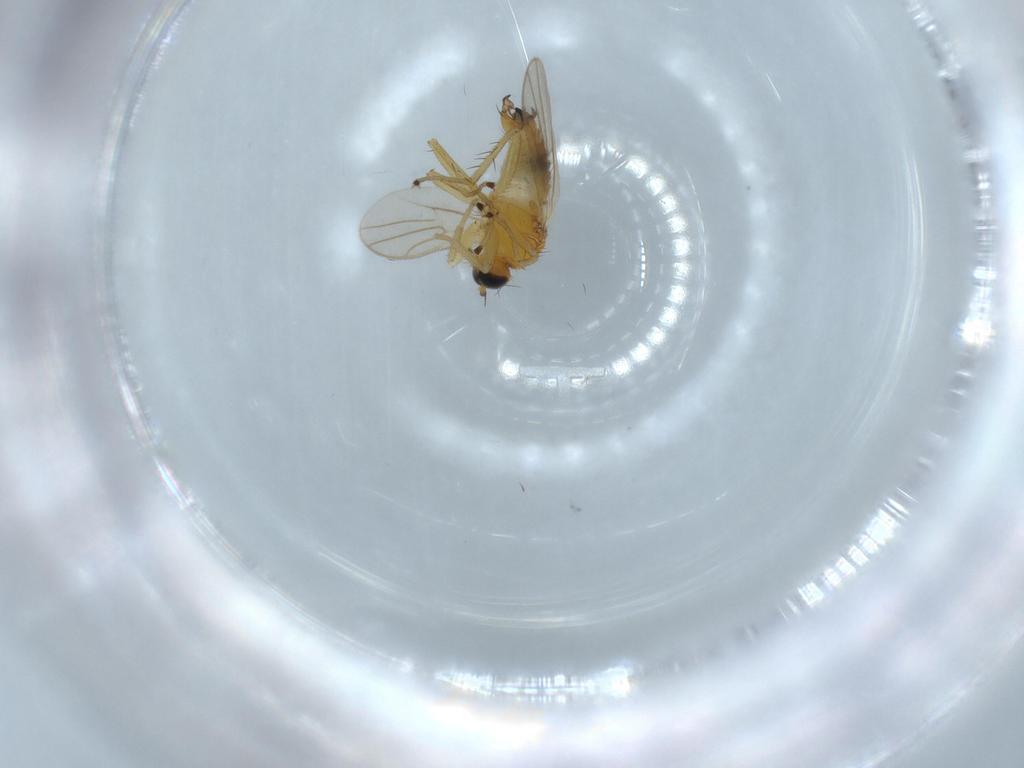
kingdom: Animalia
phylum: Arthropoda
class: Insecta
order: Diptera
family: Hybotidae
